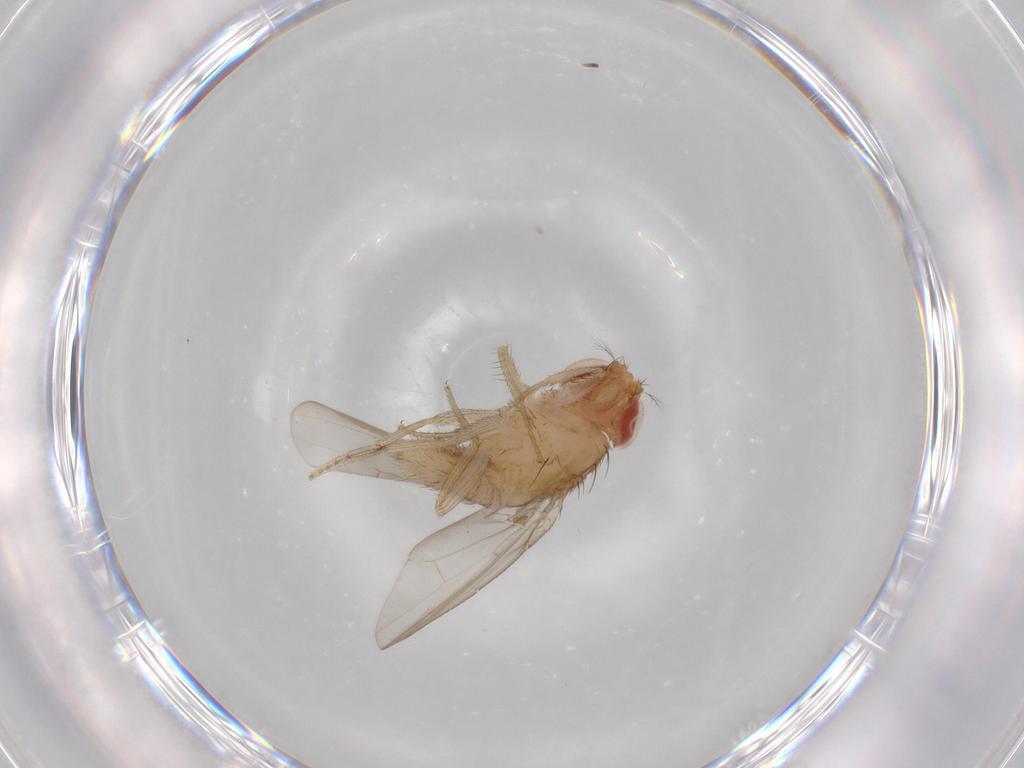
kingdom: Animalia
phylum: Arthropoda
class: Insecta
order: Diptera
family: Drosophilidae
